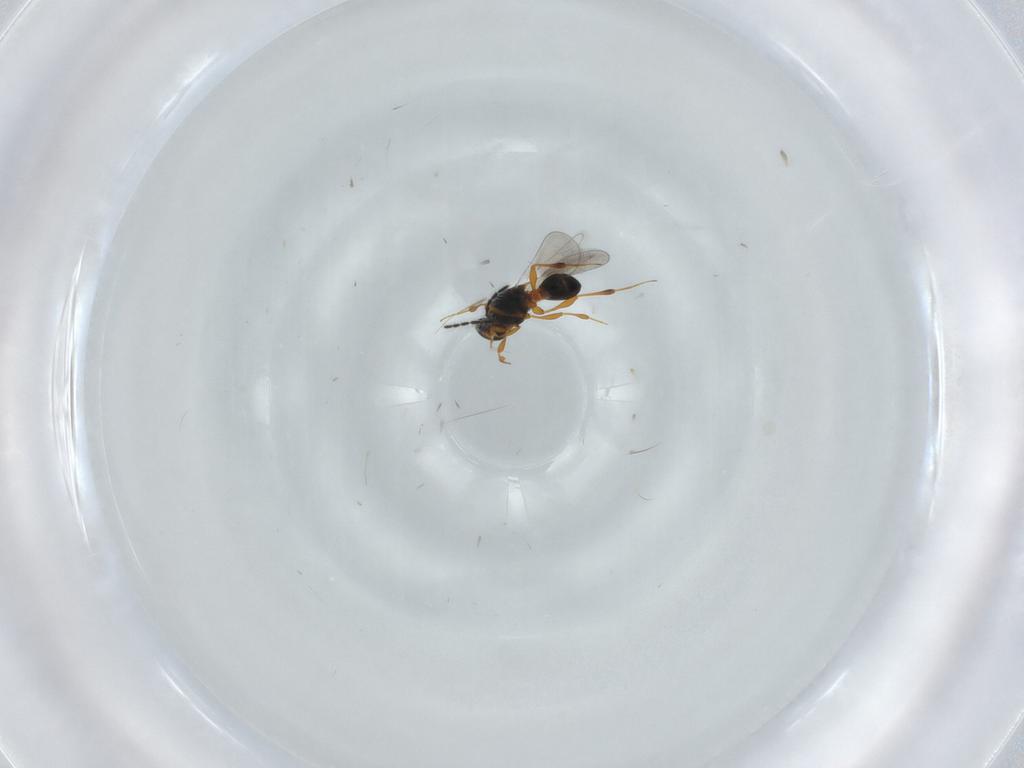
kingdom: Animalia
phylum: Arthropoda
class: Insecta
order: Hymenoptera
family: Platygastridae
